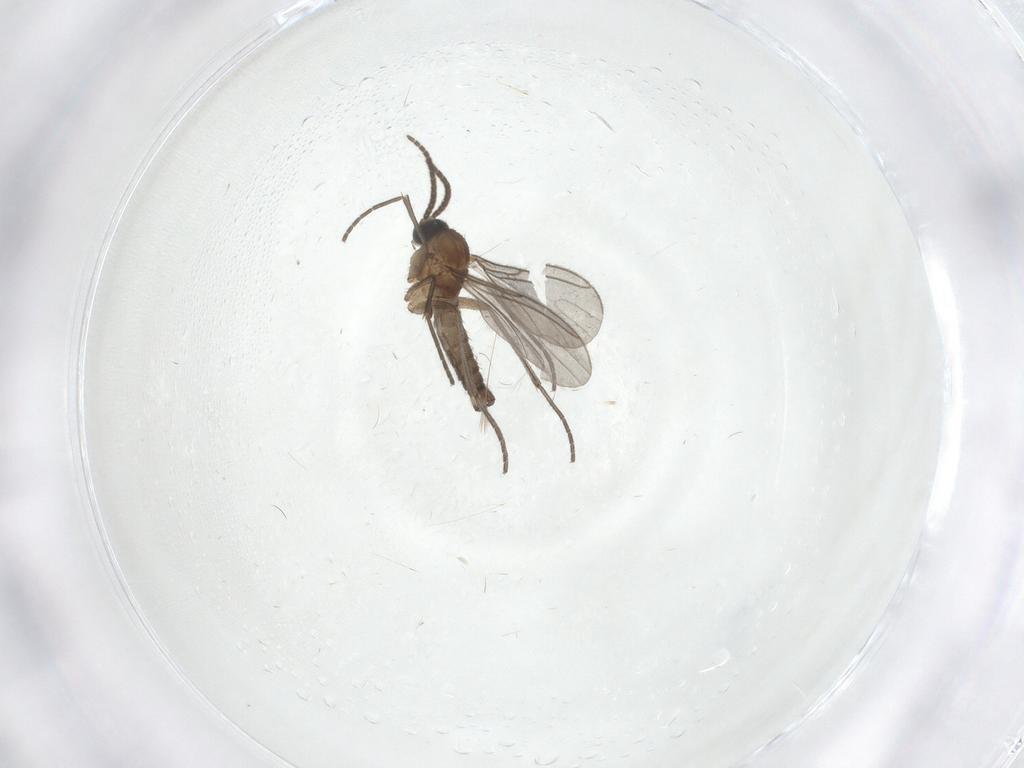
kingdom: Animalia
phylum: Arthropoda
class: Insecta
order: Diptera
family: Sciaridae
